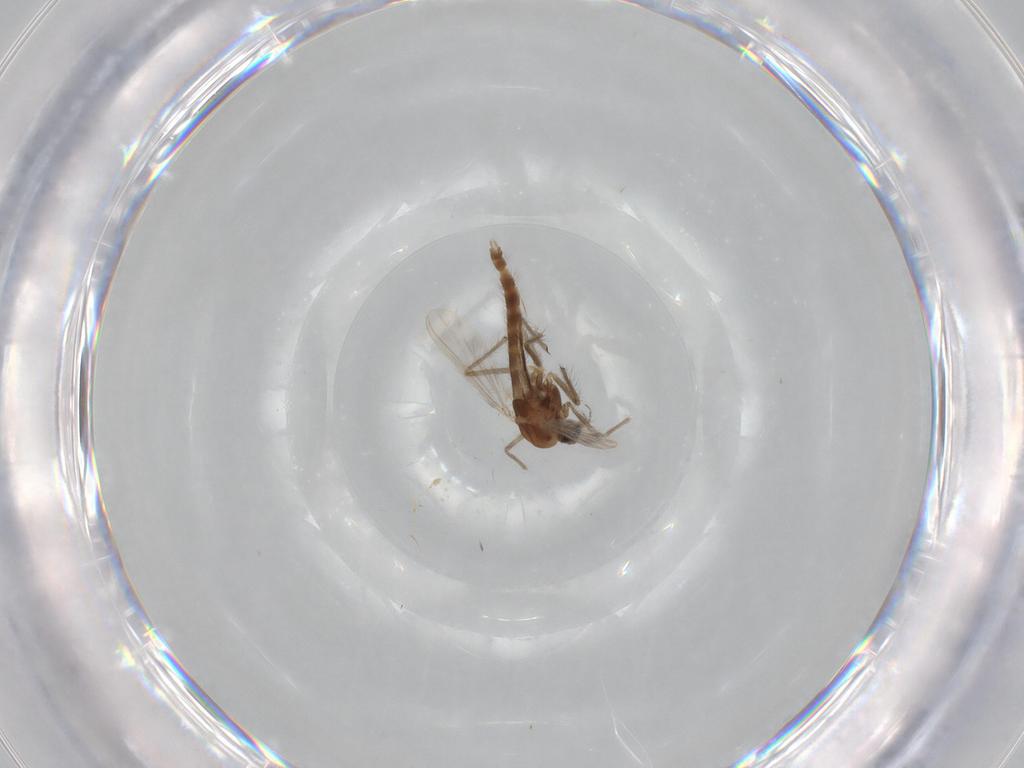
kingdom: Animalia
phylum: Arthropoda
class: Insecta
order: Diptera
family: Chironomidae
